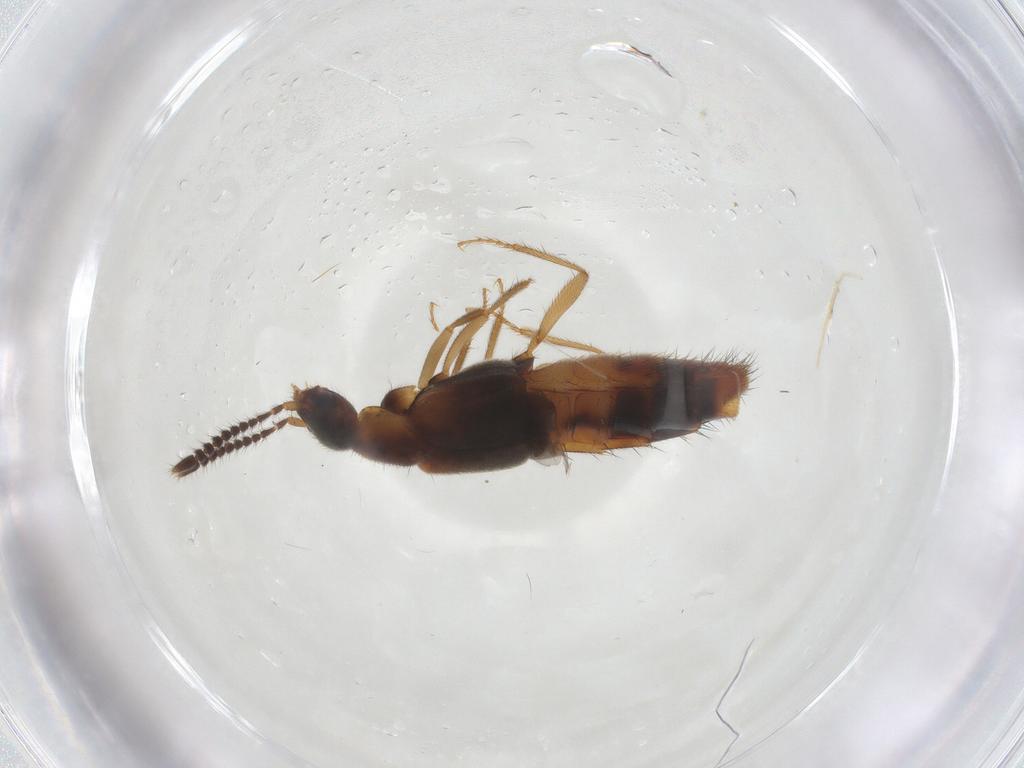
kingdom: Animalia
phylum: Arthropoda
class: Insecta
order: Coleoptera
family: Staphylinidae
